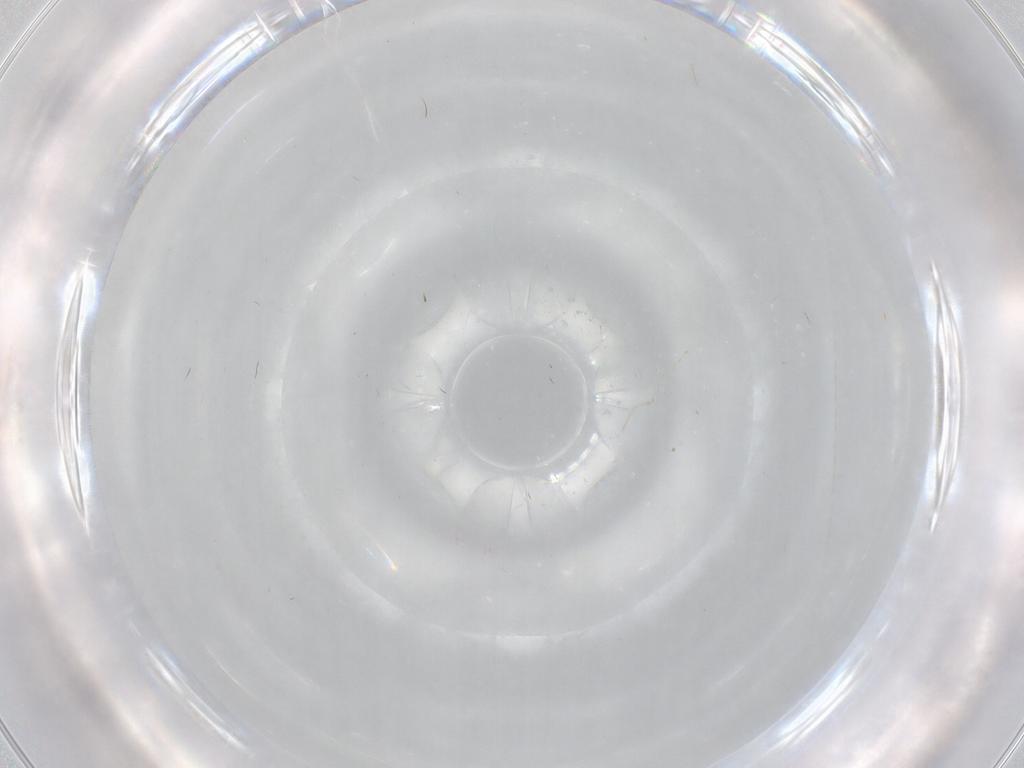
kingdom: Animalia
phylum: Arthropoda
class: Insecta
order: Diptera
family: Cecidomyiidae
